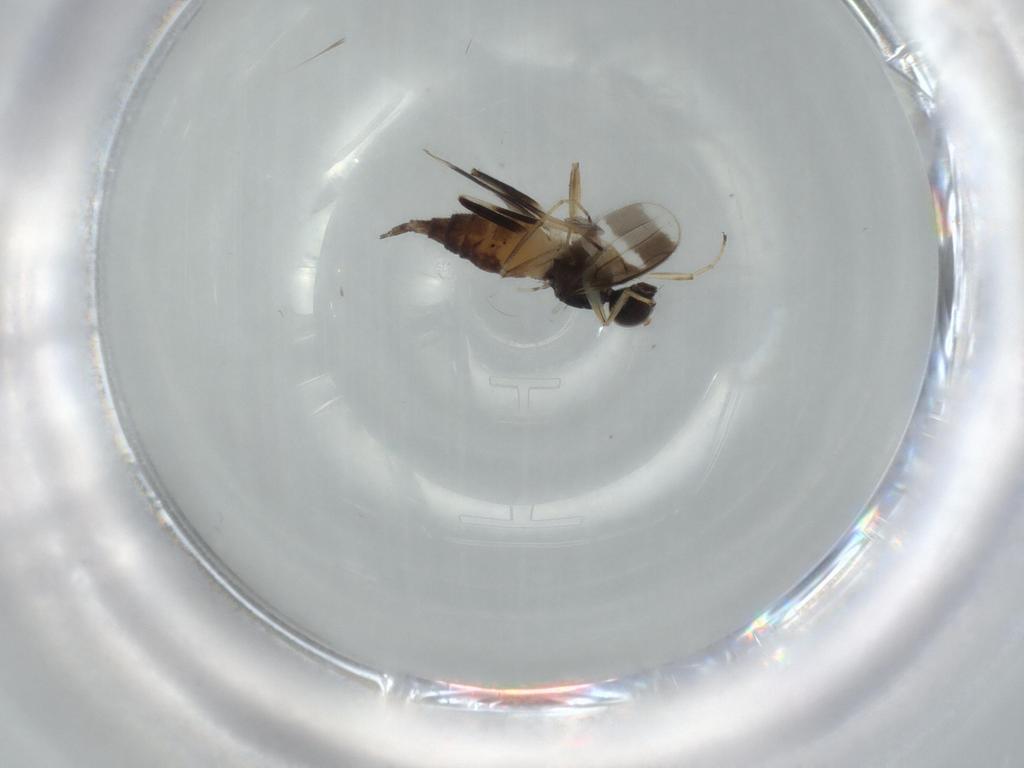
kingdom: Animalia
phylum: Arthropoda
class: Insecta
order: Diptera
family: Hybotidae
